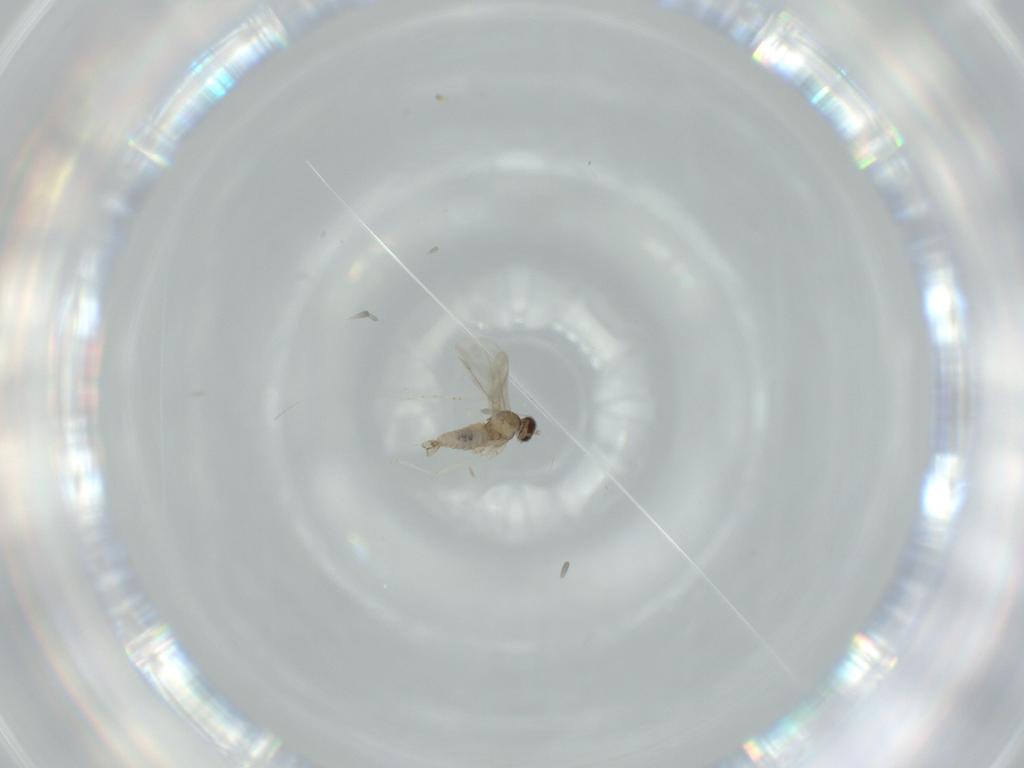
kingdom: Animalia
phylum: Arthropoda
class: Insecta
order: Diptera
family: Cecidomyiidae
